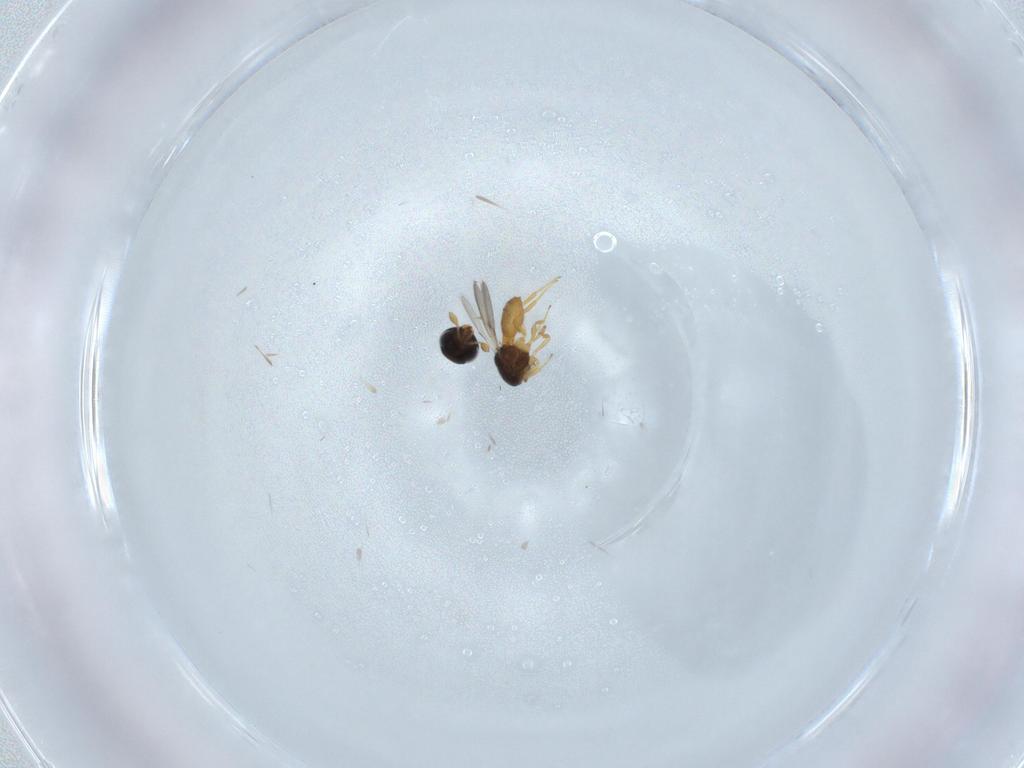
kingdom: Animalia
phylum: Arthropoda
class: Insecta
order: Hymenoptera
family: Scelionidae
